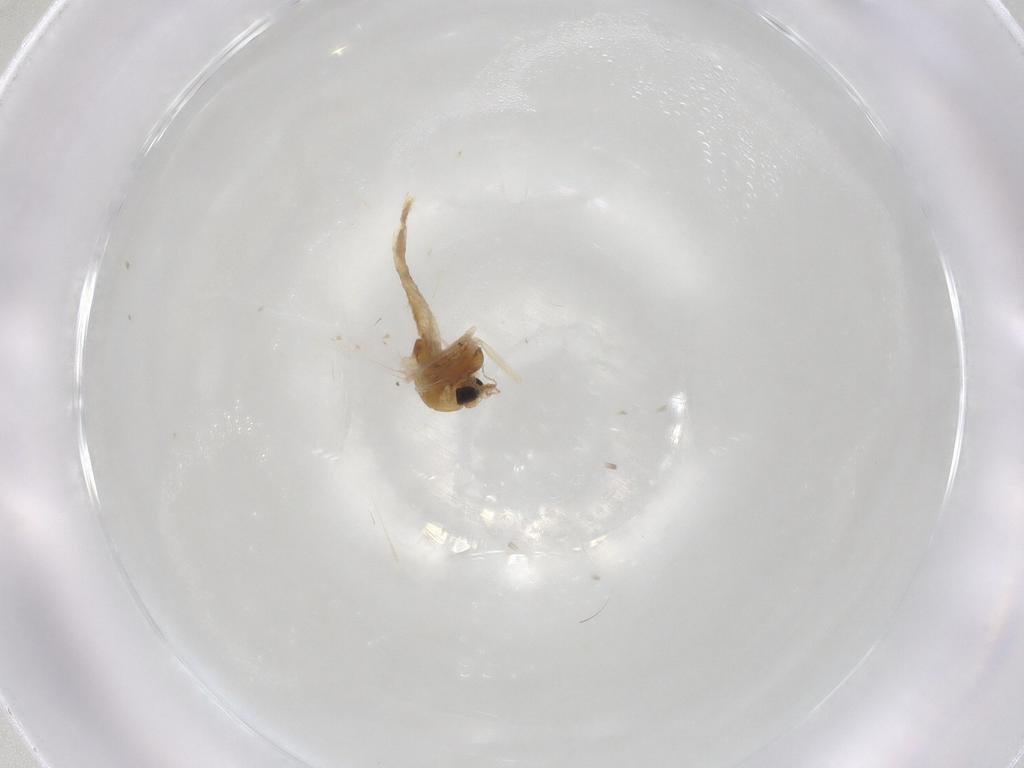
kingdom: Animalia
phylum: Arthropoda
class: Insecta
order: Diptera
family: Hybotidae
